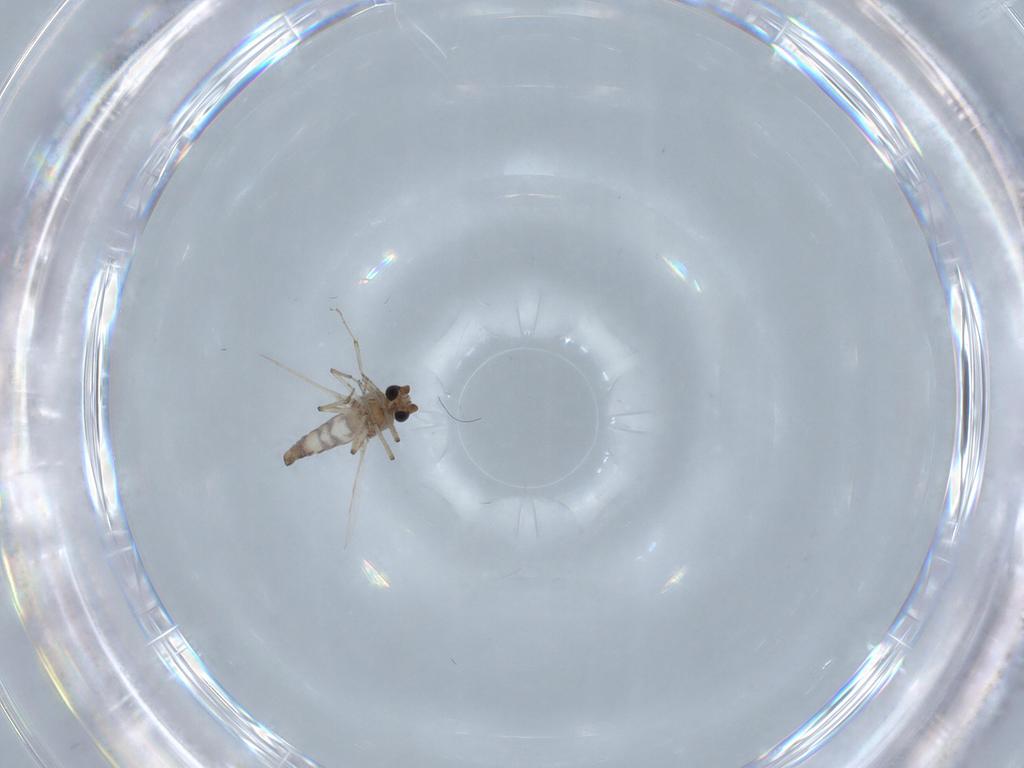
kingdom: Animalia
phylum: Arthropoda
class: Insecta
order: Diptera
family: Ceratopogonidae
